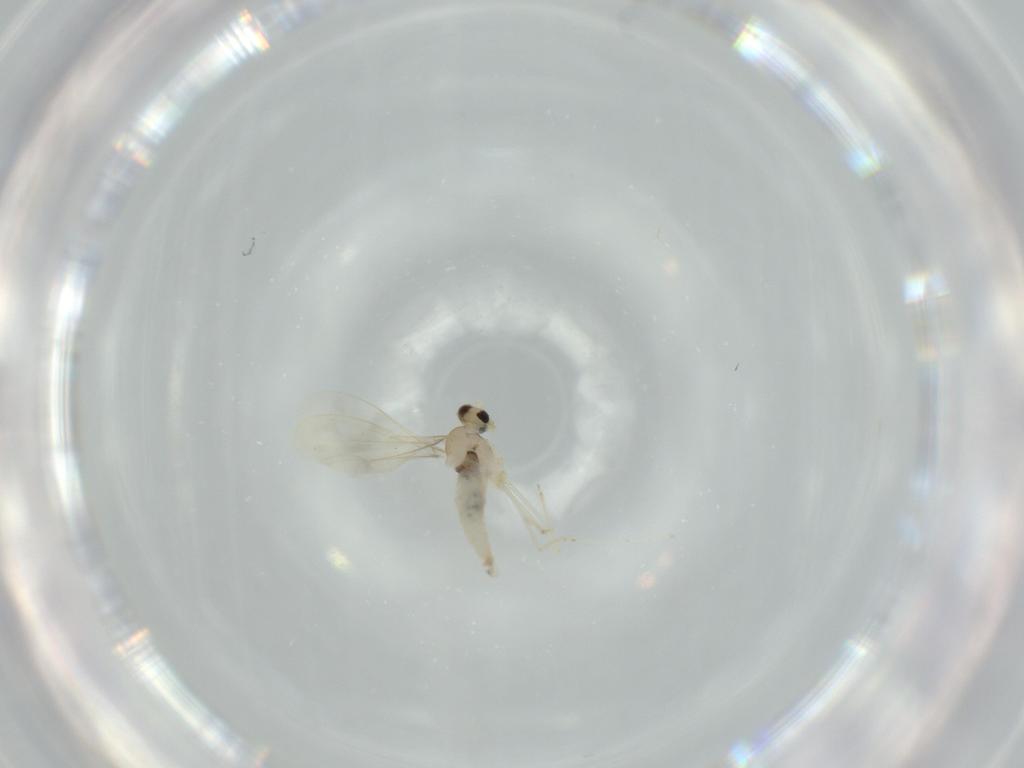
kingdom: Animalia
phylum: Arthropoda
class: Insecta
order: Diptera
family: Cecidomyiidae
